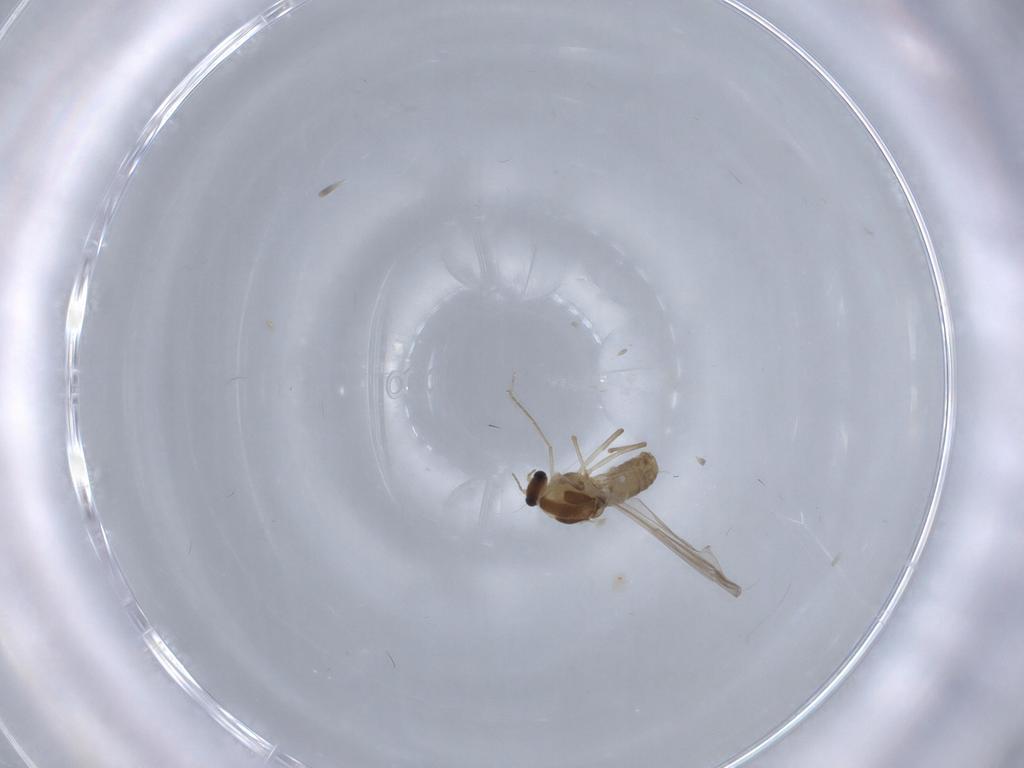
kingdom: Animalia
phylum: Arthropoda
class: Insecta
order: Diptera
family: Chironomidae
